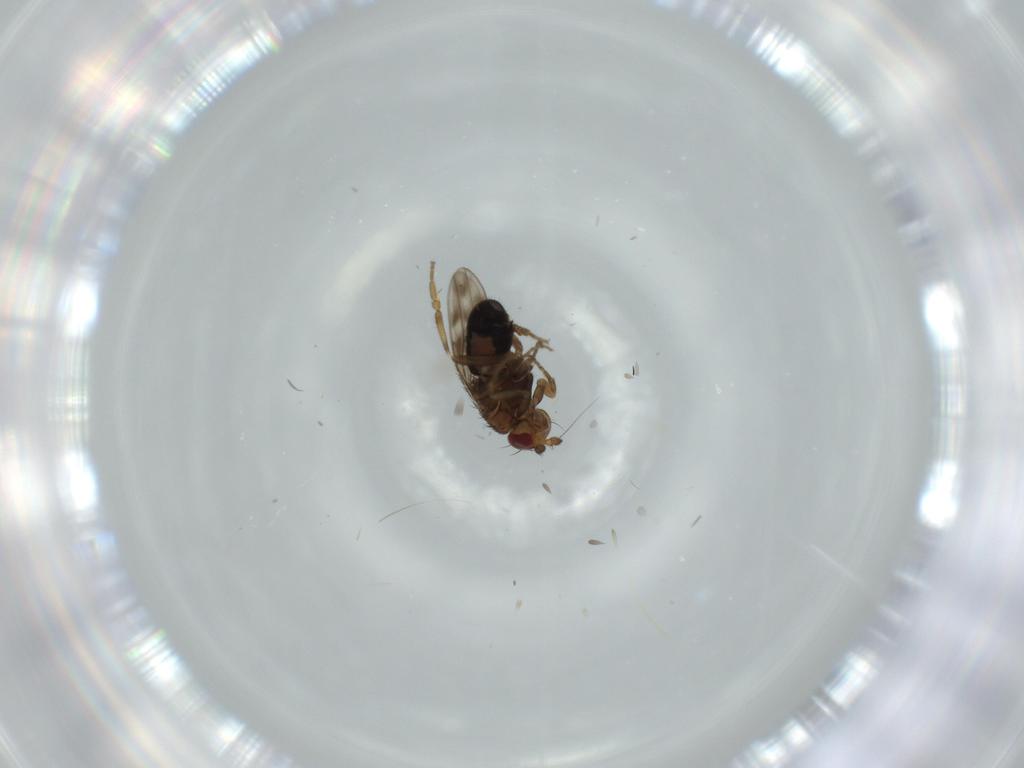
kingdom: Animalia
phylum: Arthropoda
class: Insecta
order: Diptera
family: Sphaeroceridae
